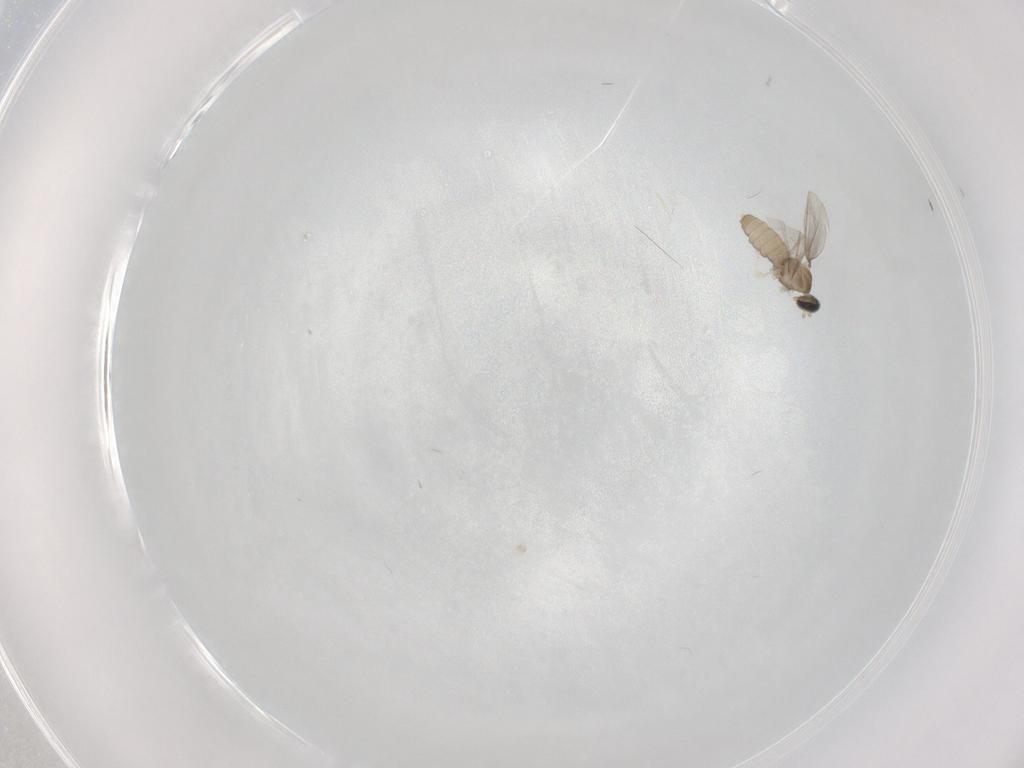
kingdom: Animalia
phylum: Arthropoda
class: Insecta
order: Diptera
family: Cecidomyiidae
